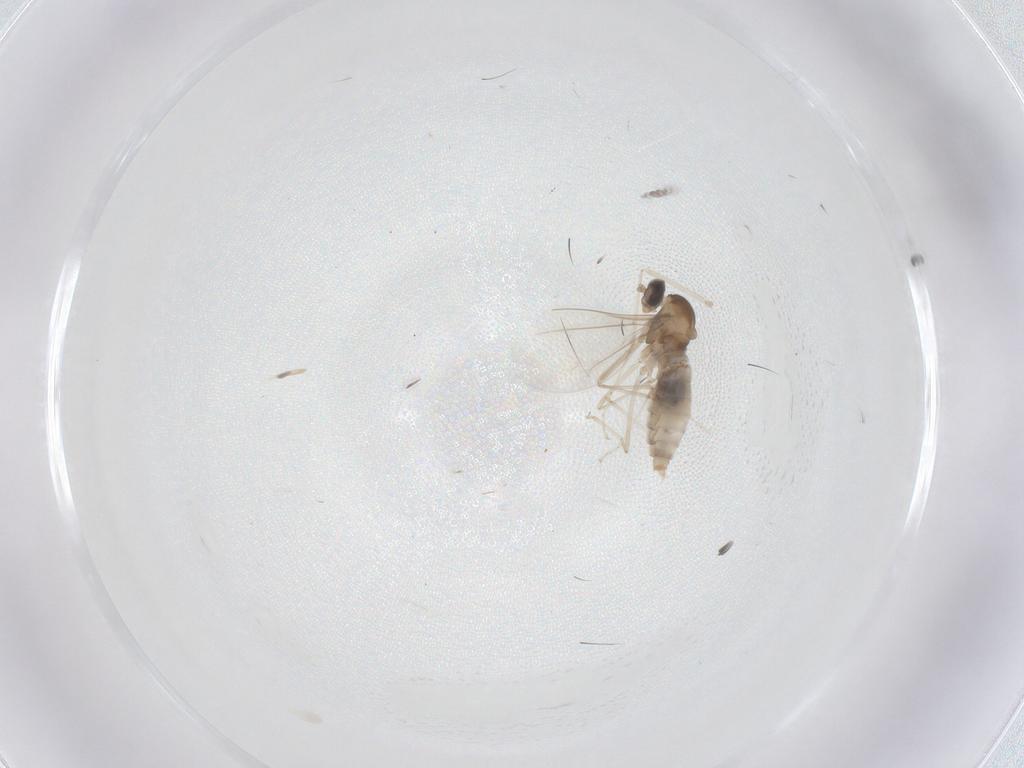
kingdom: Animalia
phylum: Arthropoda
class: Insecta
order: Diptera
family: Cecidomyiidae
